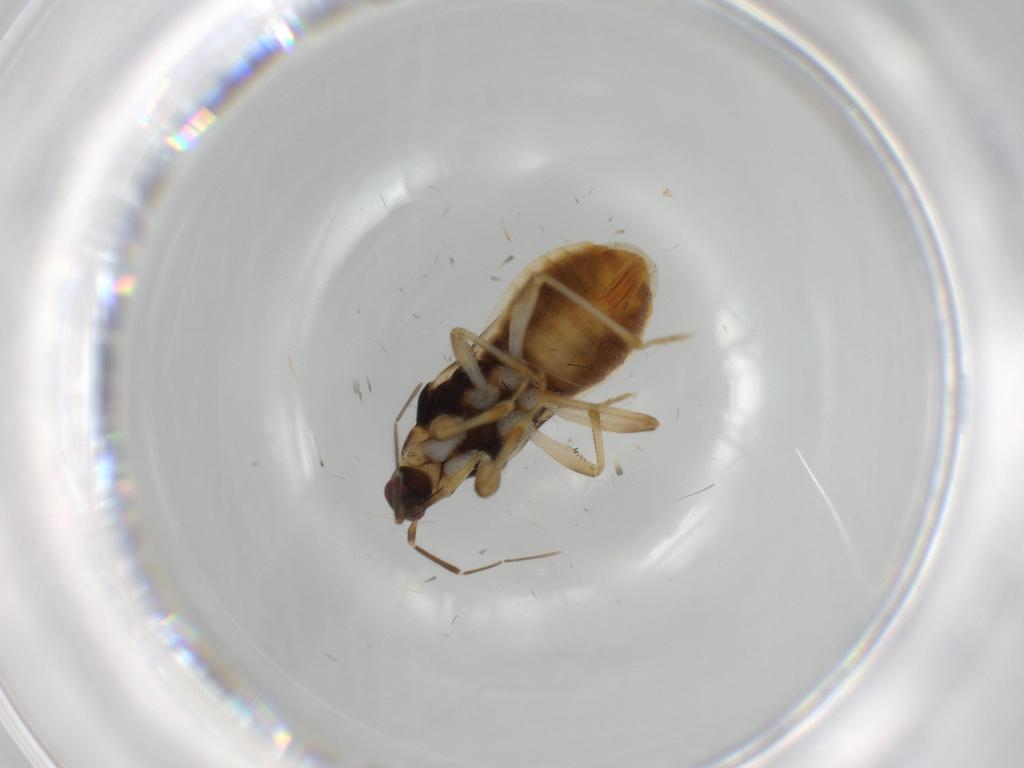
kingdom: Animalia
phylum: Arthropoda
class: Insecta
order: Hemiptera
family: Nabidae
